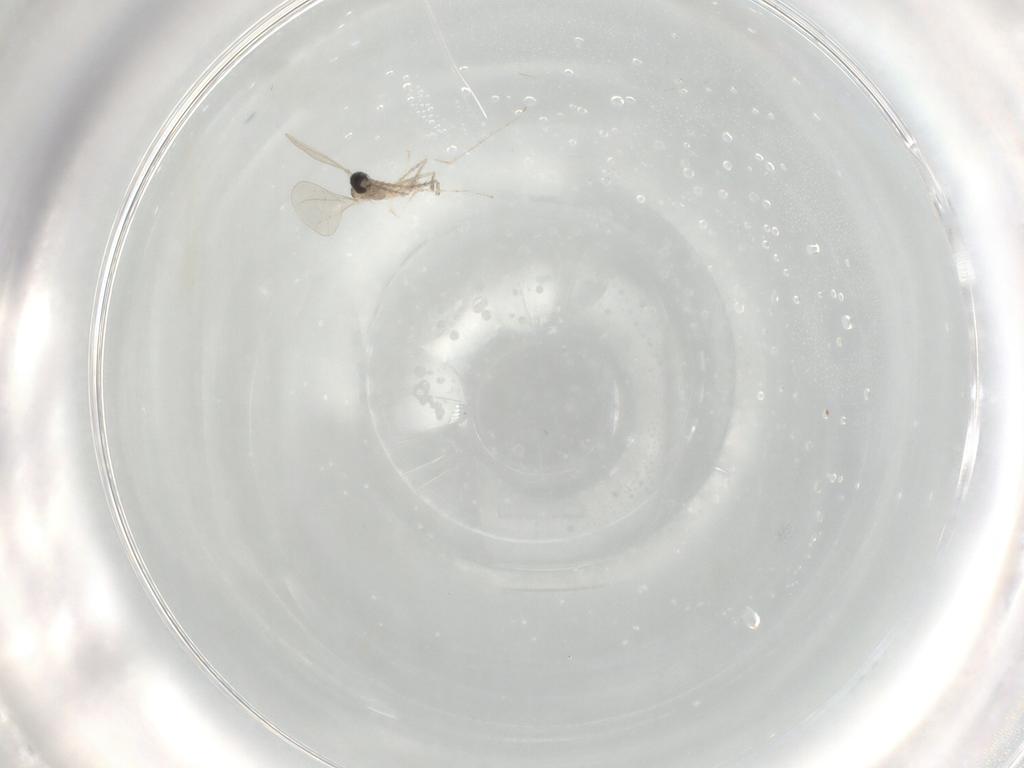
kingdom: Animalia
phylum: Arthropoda
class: Insecta
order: Diptera
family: Cecidomyiidae
